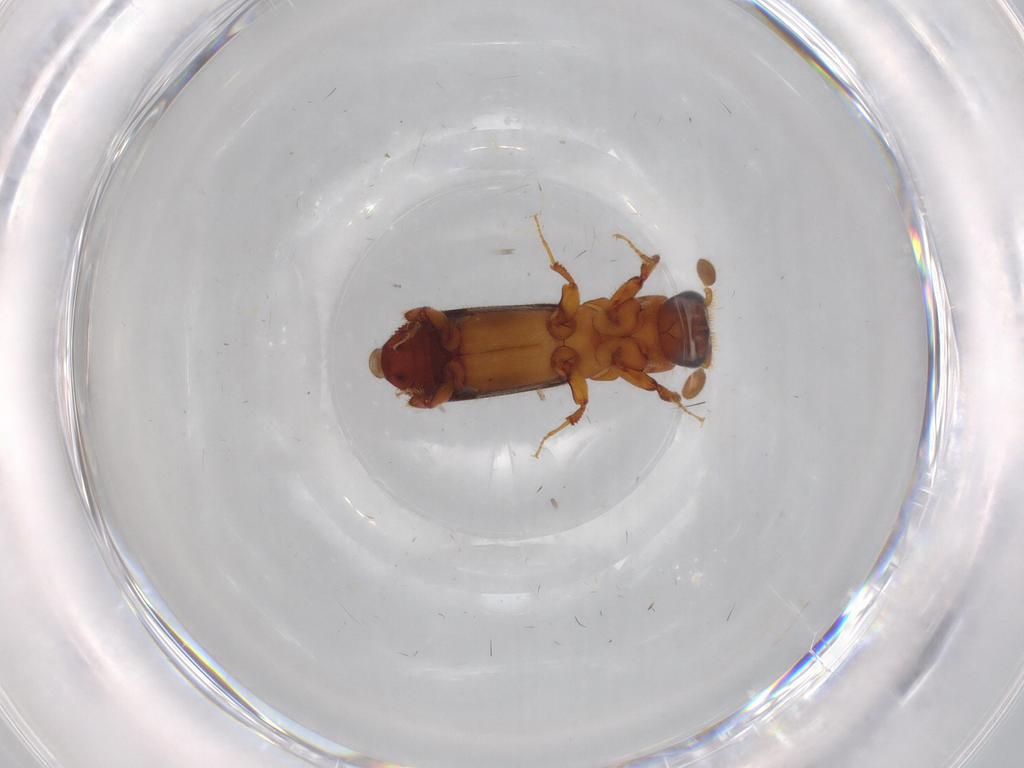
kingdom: Animalia
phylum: Arthropoda
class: Insecta
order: Coleoptera
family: Curculionidae
